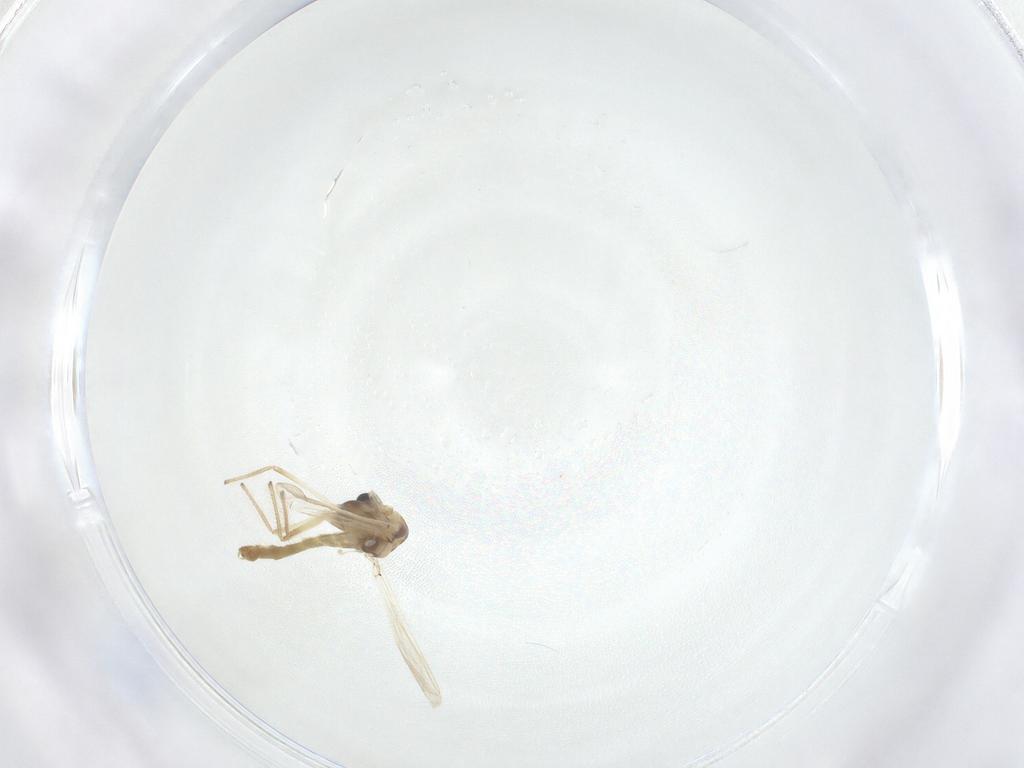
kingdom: Animalia
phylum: Arthropoda
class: Insecta
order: Diptera
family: Chironomidae
